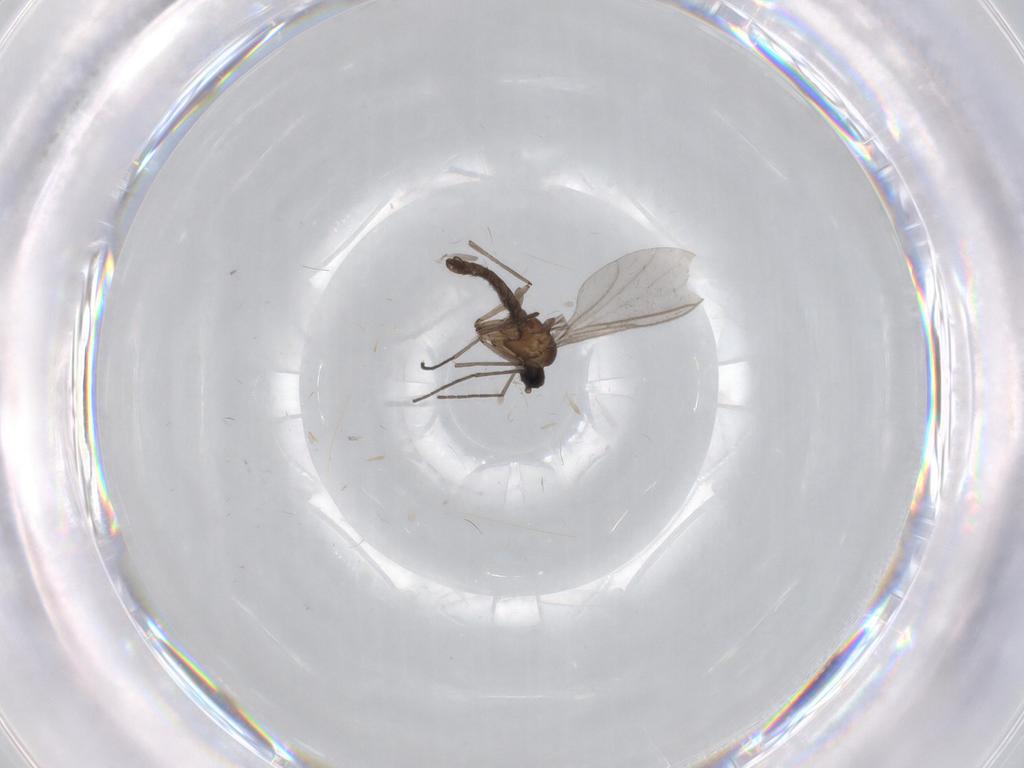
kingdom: Animalia
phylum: Arthropoda
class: Insecta
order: Diptera
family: Limoniidae
